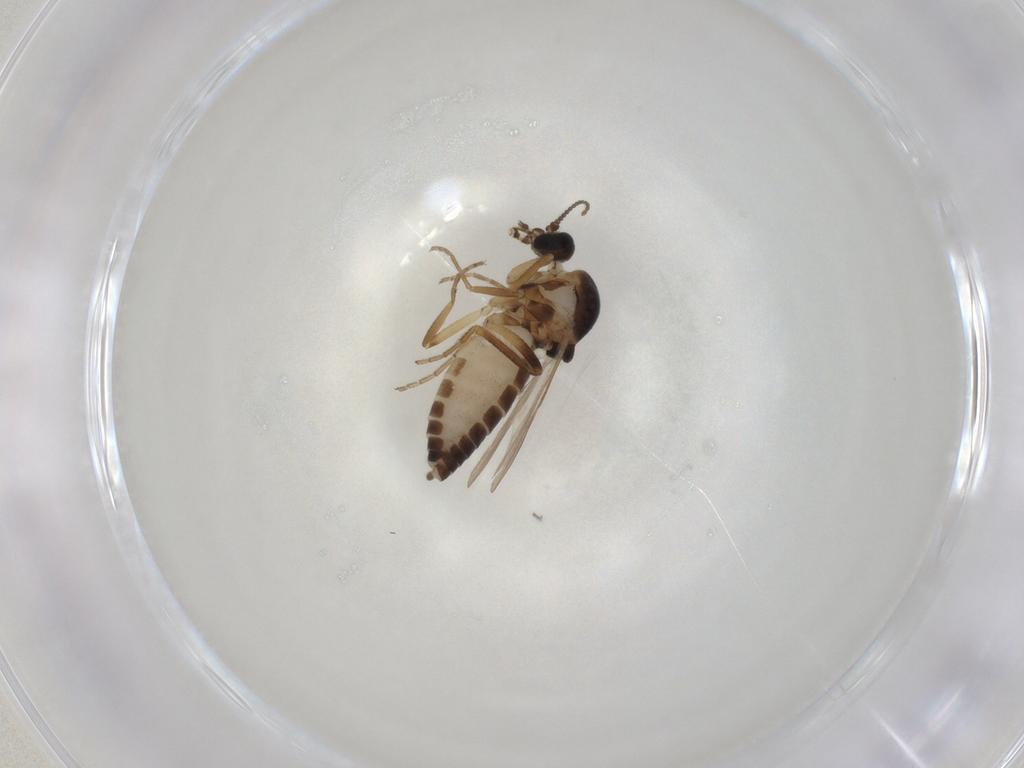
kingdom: Animalia
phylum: Arthropoda
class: Insecta
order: Diptera
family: Ceratopogonidae
